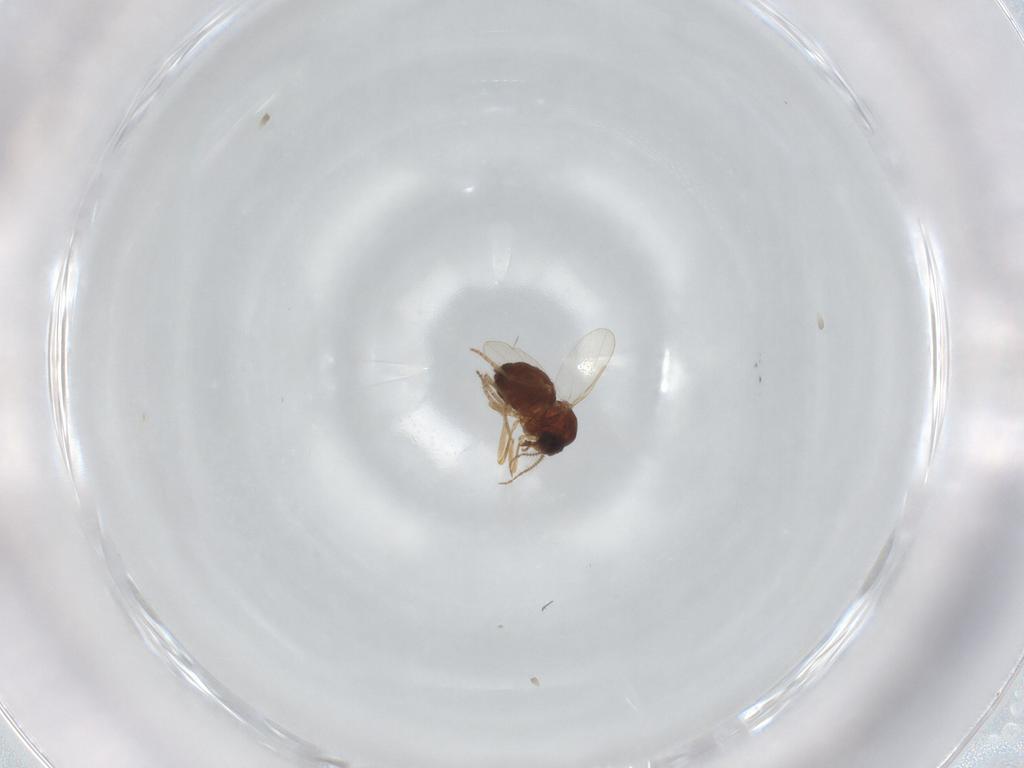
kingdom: Animalia
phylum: Arthropoda
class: Insecta
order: Diptera
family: Ceratopogonidae
